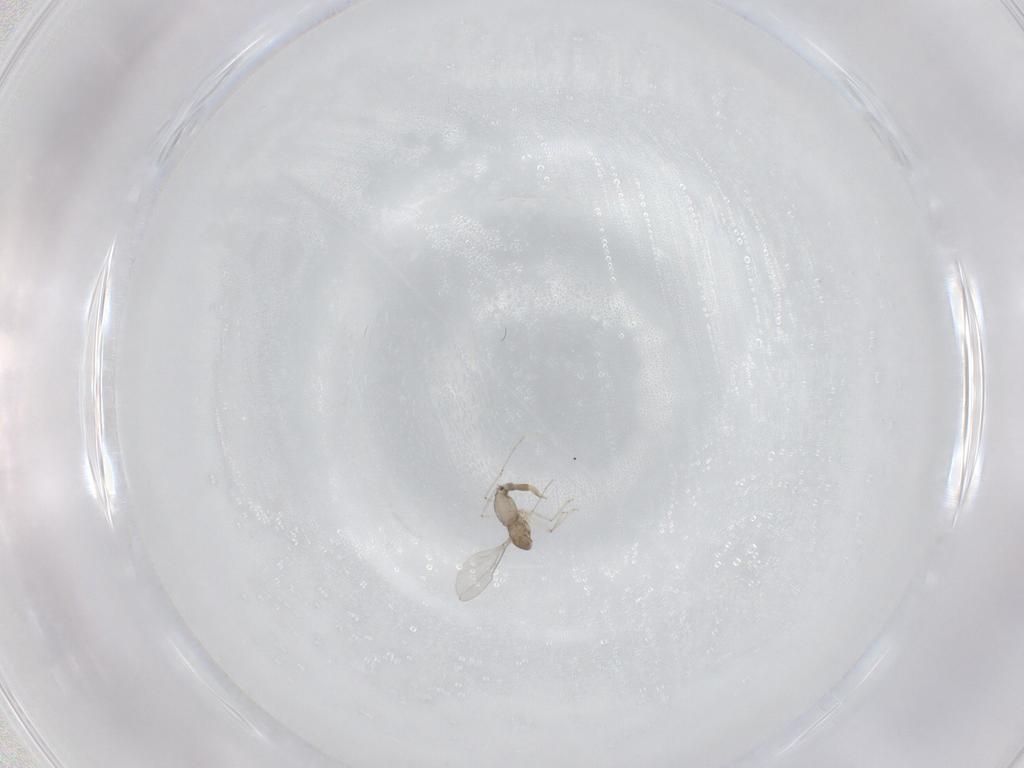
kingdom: Animalia
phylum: Arthropoda
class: Insecta
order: Diptera
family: Cecidomyiidae
